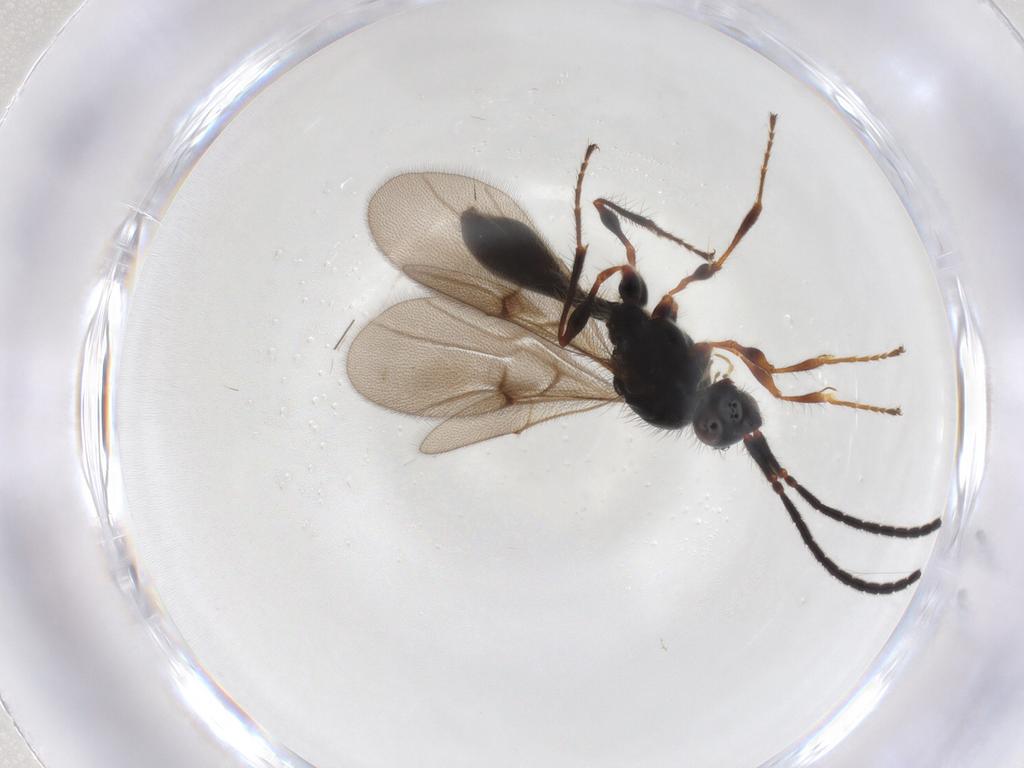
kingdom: Animalia
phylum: Arthropoda
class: Insecta
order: Hymenoptera
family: Diapriidae
